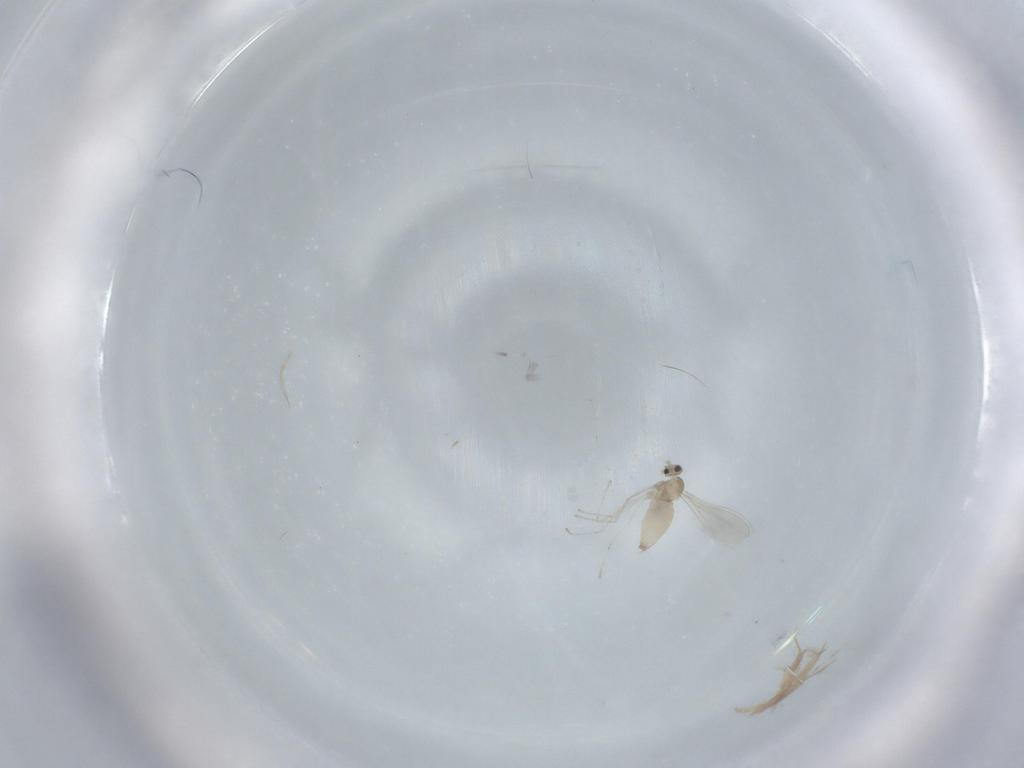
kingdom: Animalia
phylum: Arthropoda
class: Insecta
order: Diptera
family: Cecidomyiidae
